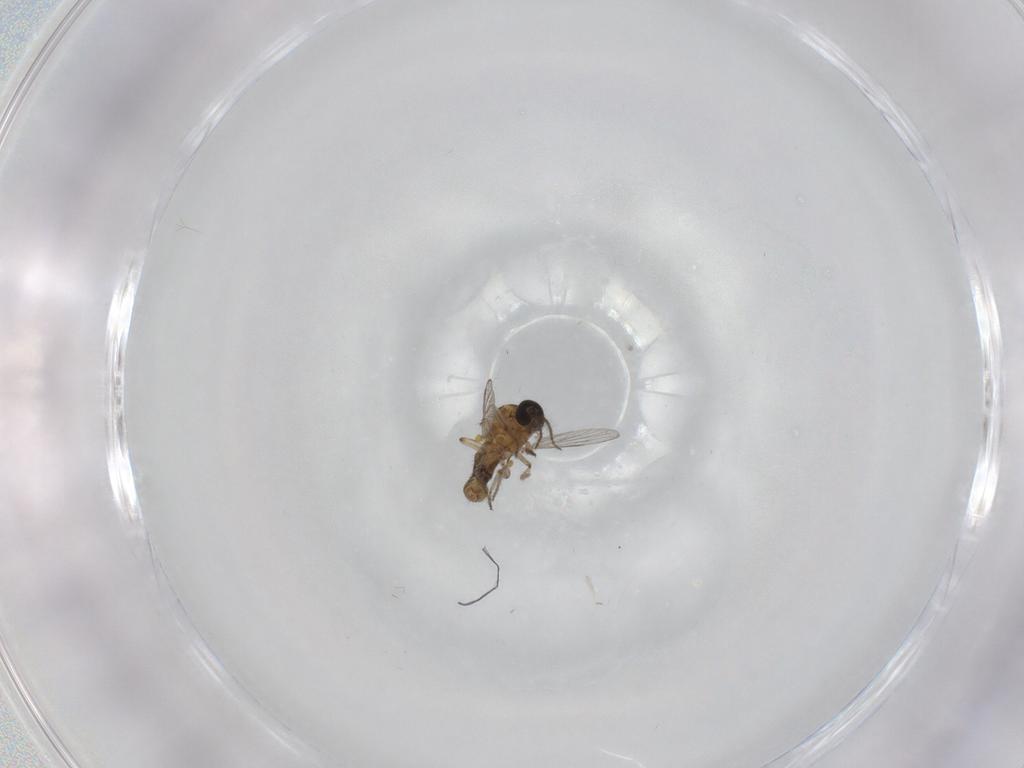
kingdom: Animalia
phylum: Arthropoda
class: Insecta
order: Diptera
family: Ceratopogonidae
